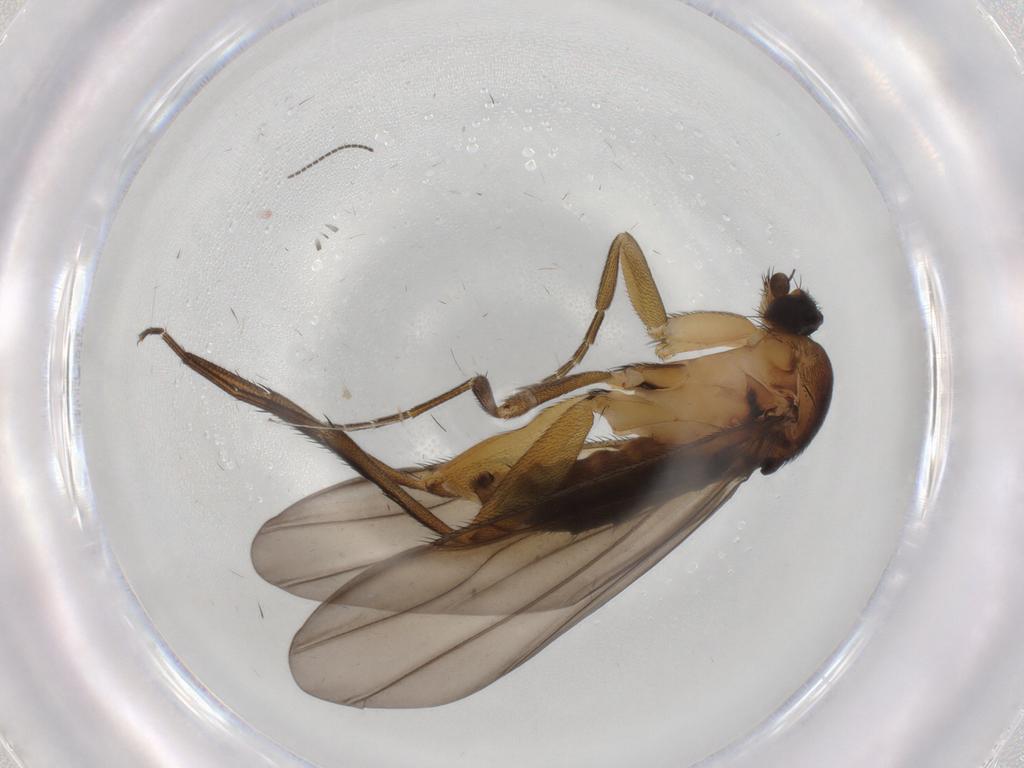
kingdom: Animalia
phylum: Arthropoda
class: Insecta
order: Diptera
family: Phoridae
